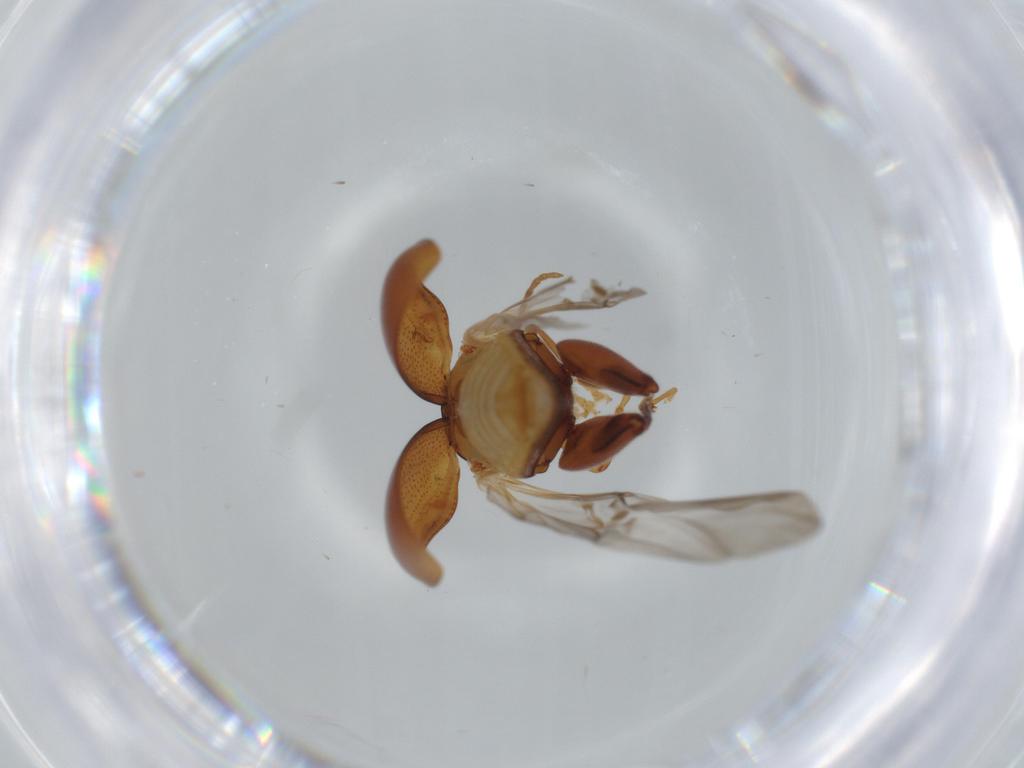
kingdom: Animalia
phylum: Arthropoda
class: Insecta
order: Coleoptera
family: Chrysomelidae
